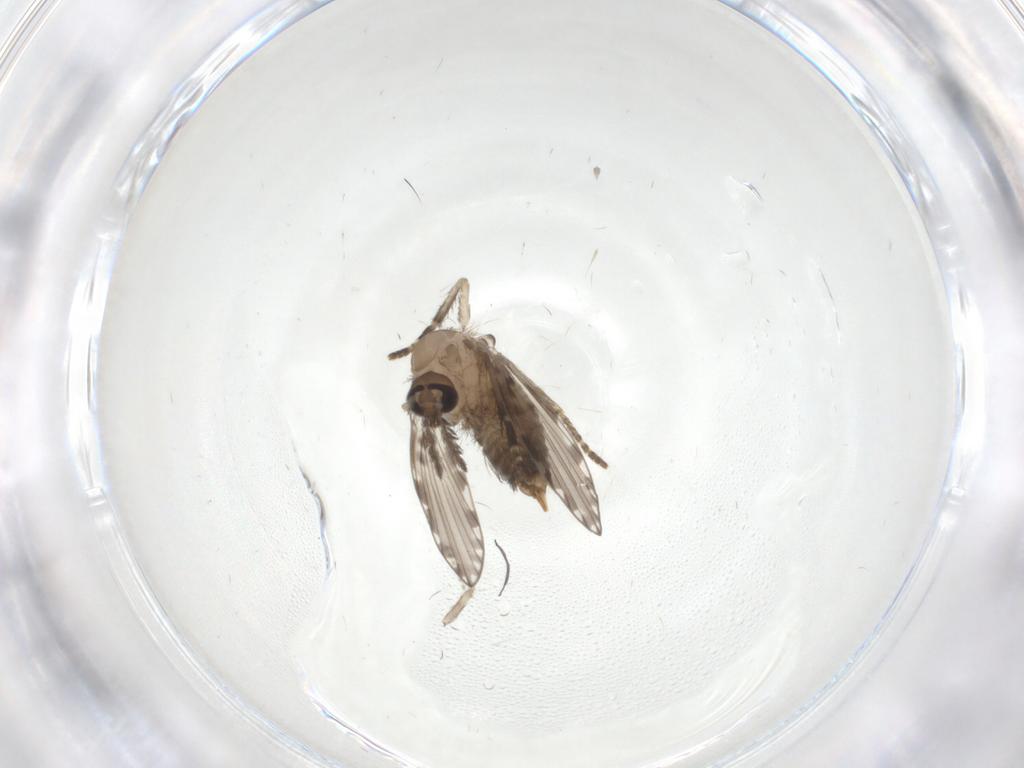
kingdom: Animalia
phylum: Arthropoda
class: Insecta
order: Diptera
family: Psychodidae
